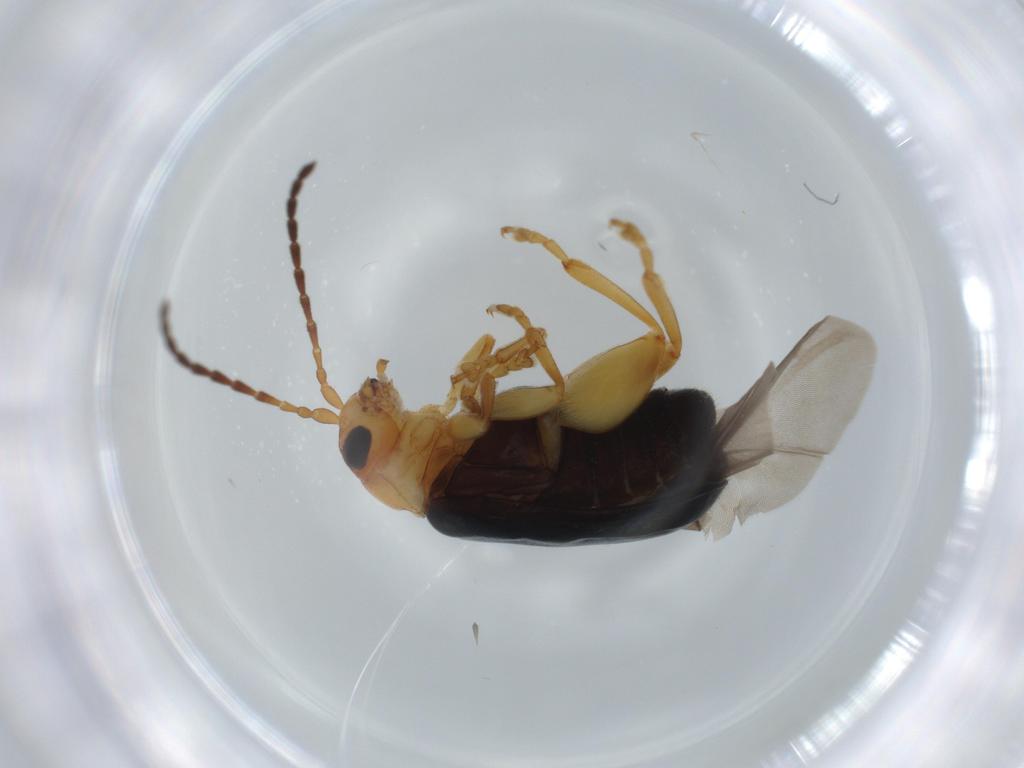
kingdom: Animalia
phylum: Arthropoda
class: Insecta
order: Coleoptera
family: Chrysomelidae
